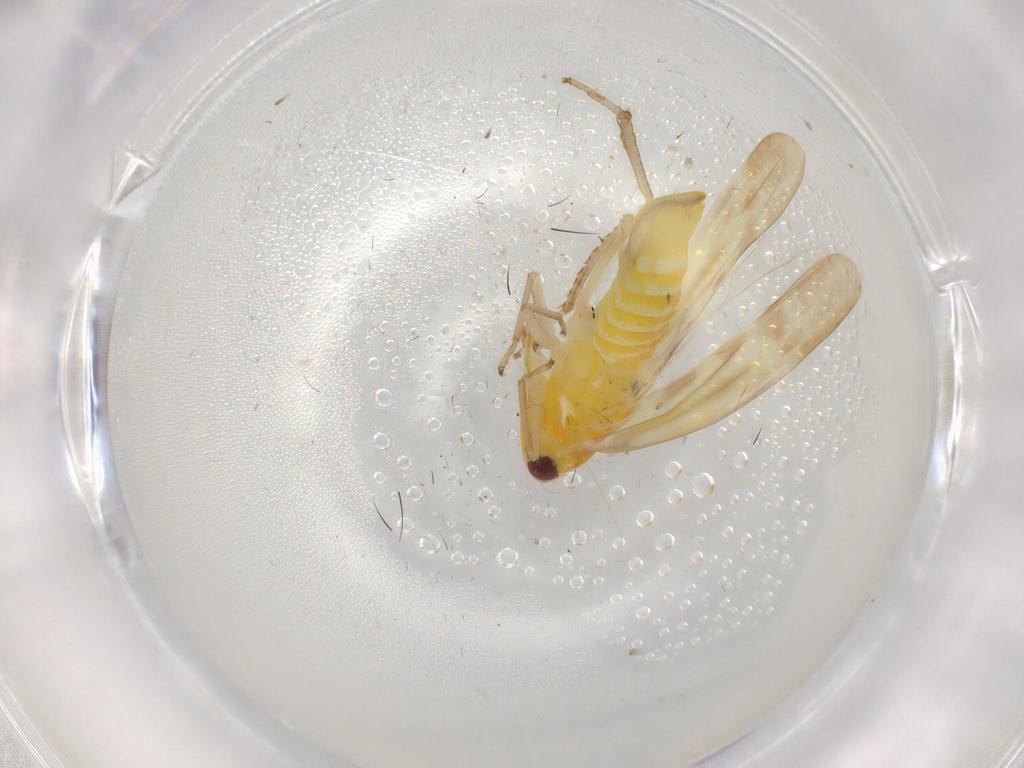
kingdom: Animalia
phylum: Arthropoda
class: Insecta
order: Hemiptera
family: Cicadellidae
